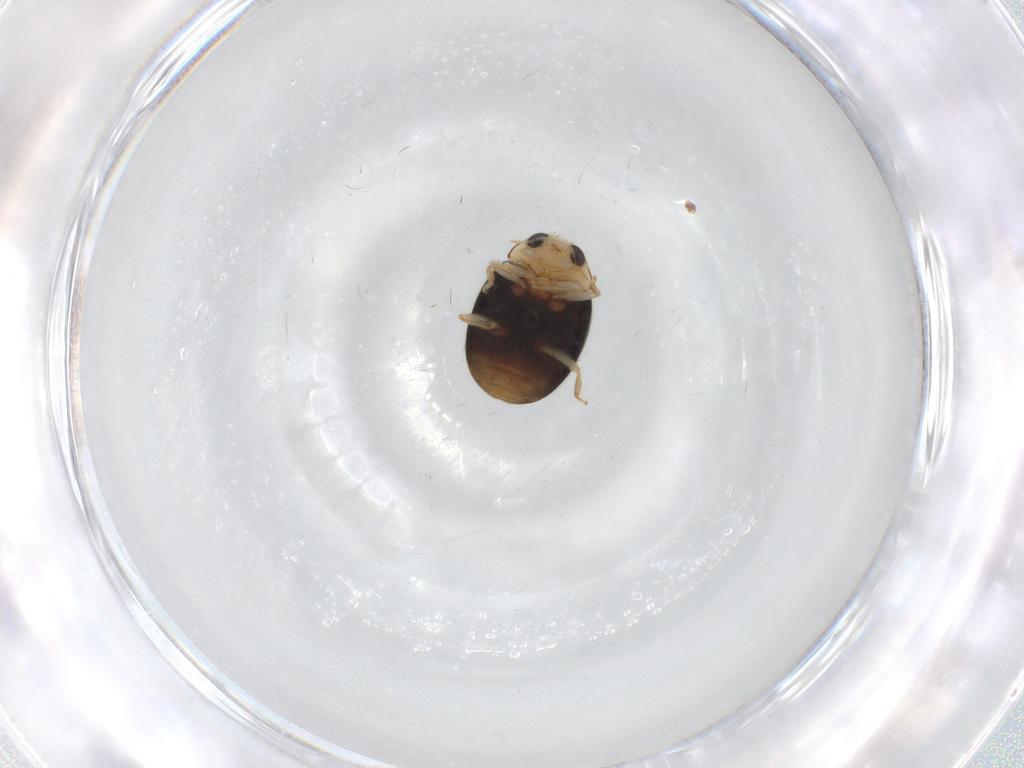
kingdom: Animalia
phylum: Arthropoda
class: Insecta
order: Coleoptera
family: Coccinellidae
